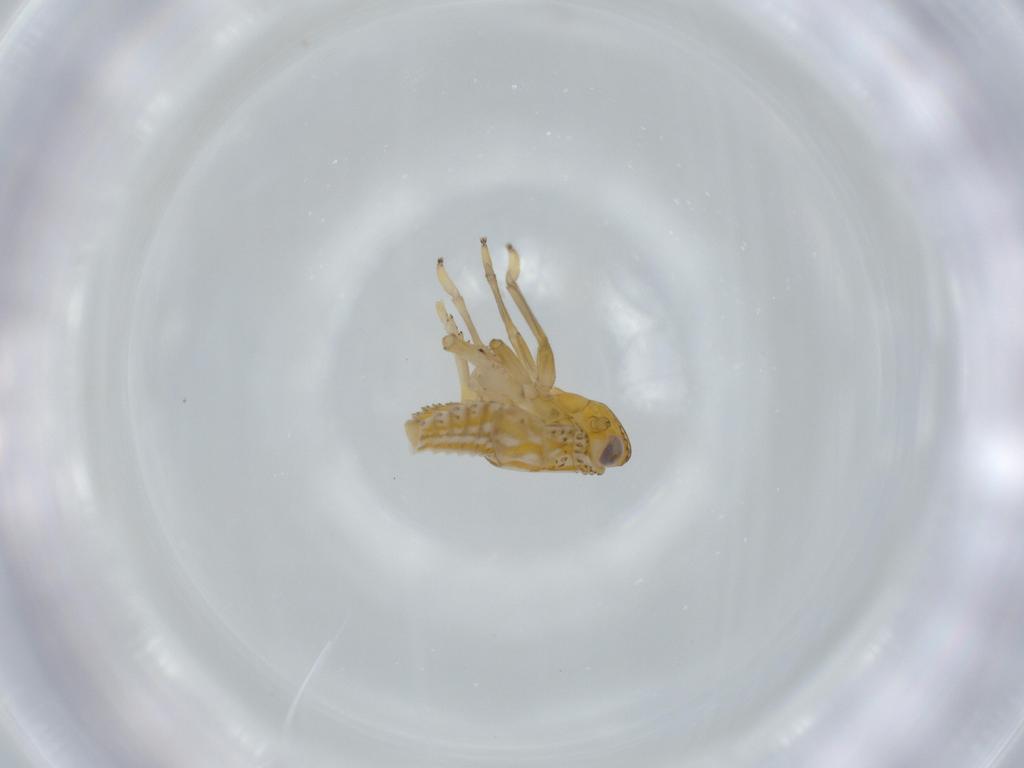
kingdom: Animalia
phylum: Arthropoda
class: Insecta
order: Hemiptera
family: Issidae
